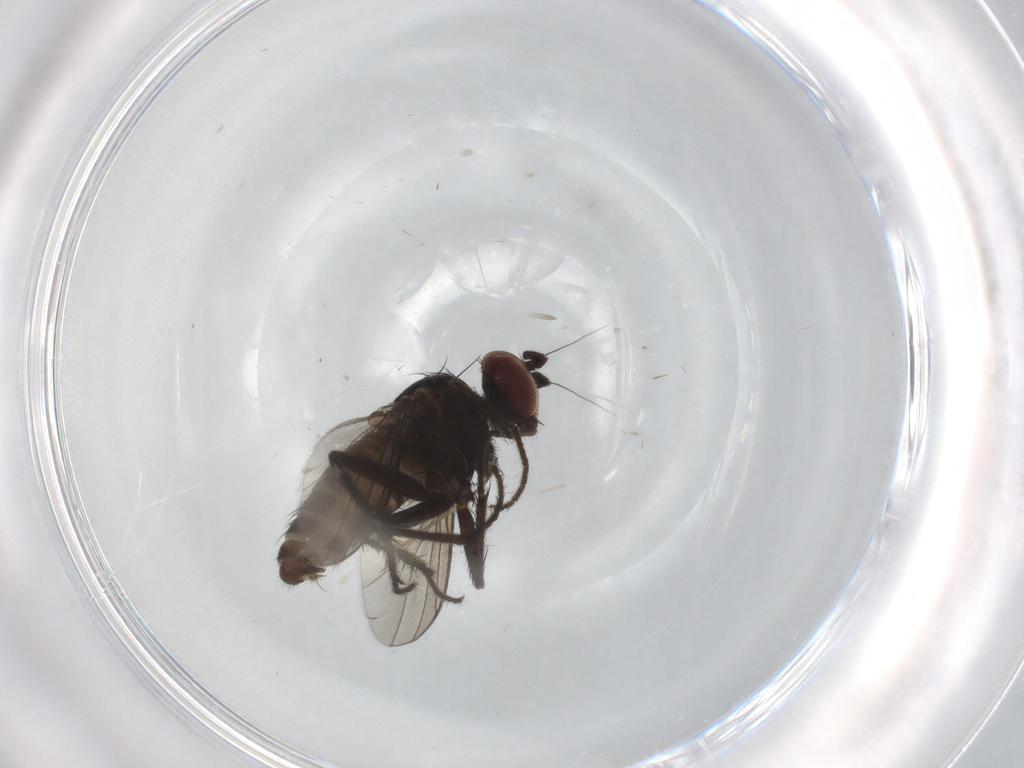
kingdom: Animalia
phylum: Arthropoda
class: Insecta
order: Diptera
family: Dolichopodidae
